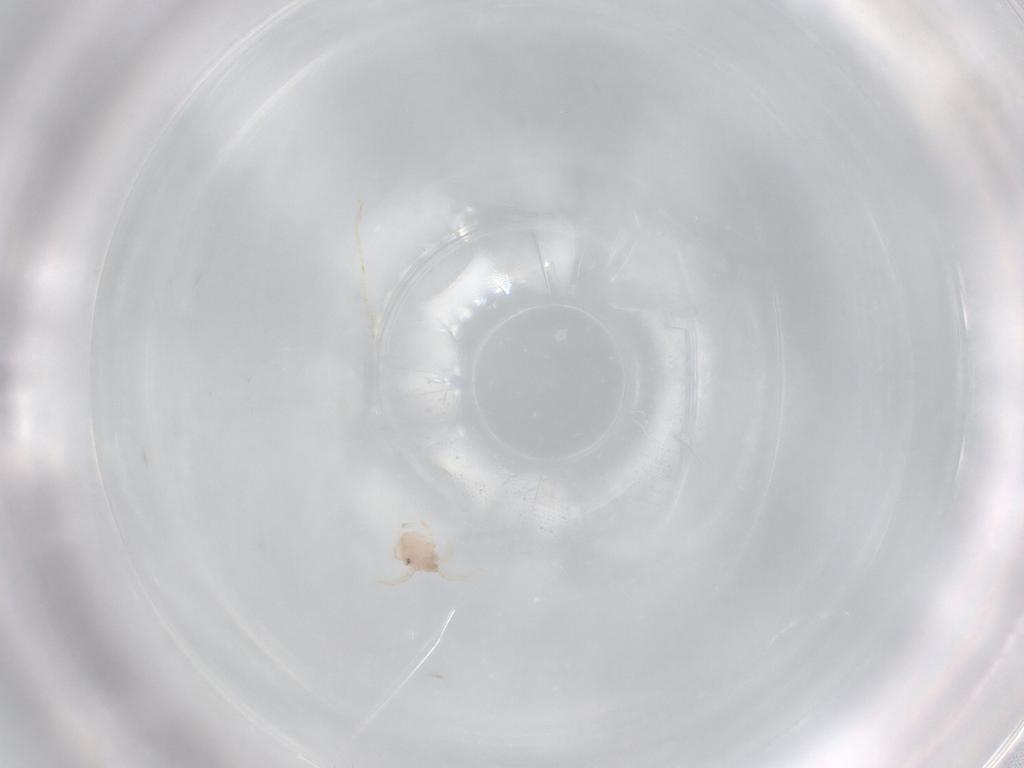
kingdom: Animalia
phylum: Arthropoda
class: Arachnida
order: Trombidiformes
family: Hydryphantidae
